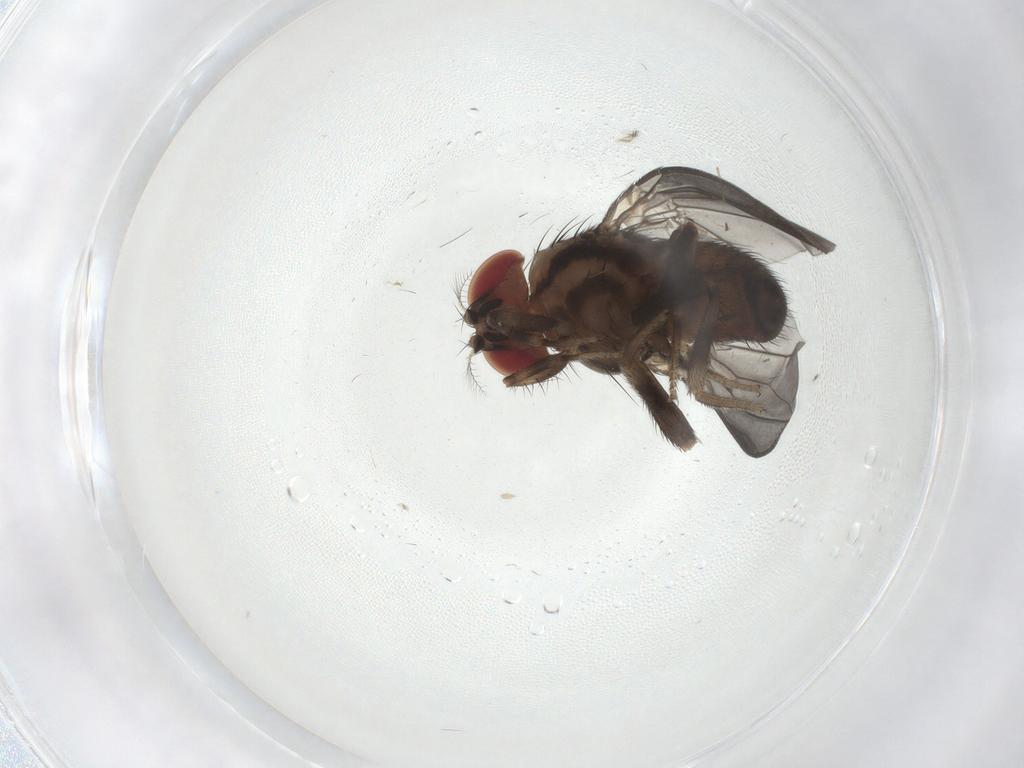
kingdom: Animalia
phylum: Arthropoda
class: Insecta
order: Diptera
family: Drosophilidae
